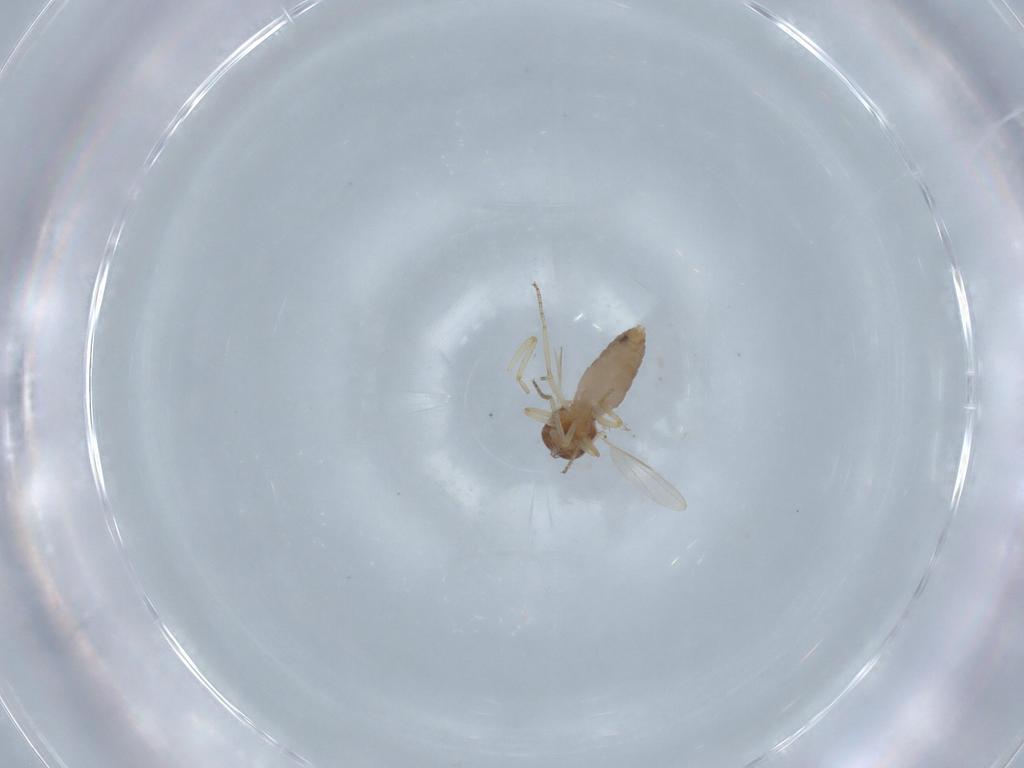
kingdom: Animalia
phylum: Arthropoda
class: Insecta
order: Diptera
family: Ceratopogonidae
